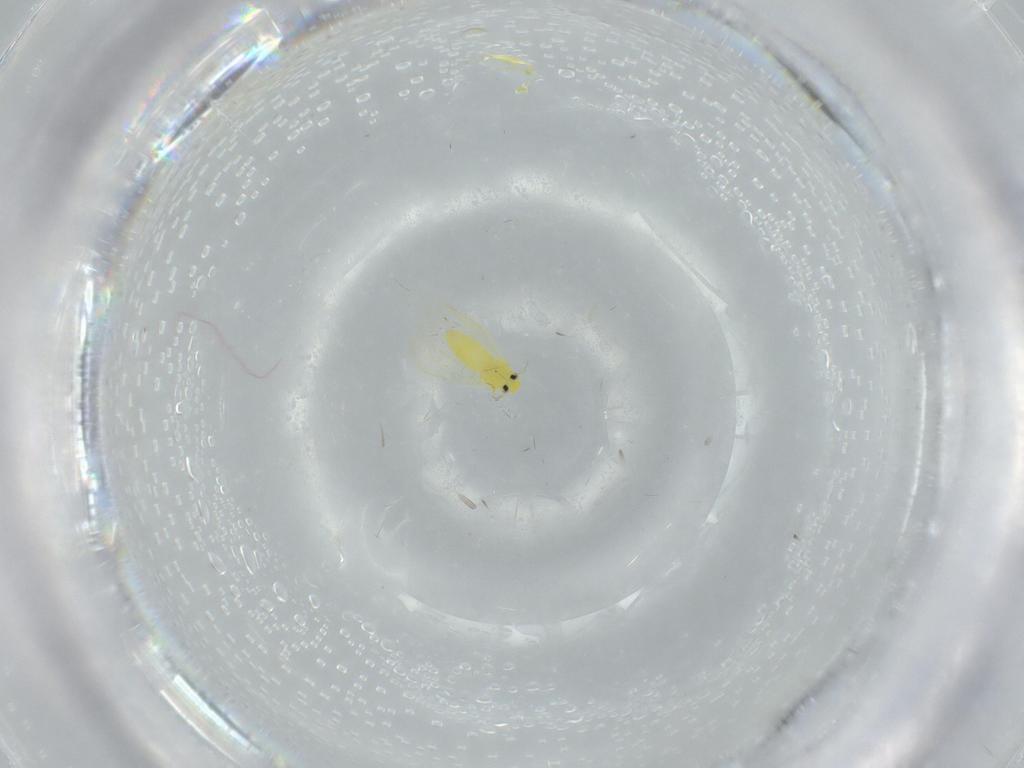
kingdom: Animalia
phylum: Arthropoda
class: Insecta
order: Hemiptera
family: Aleyrodidae
